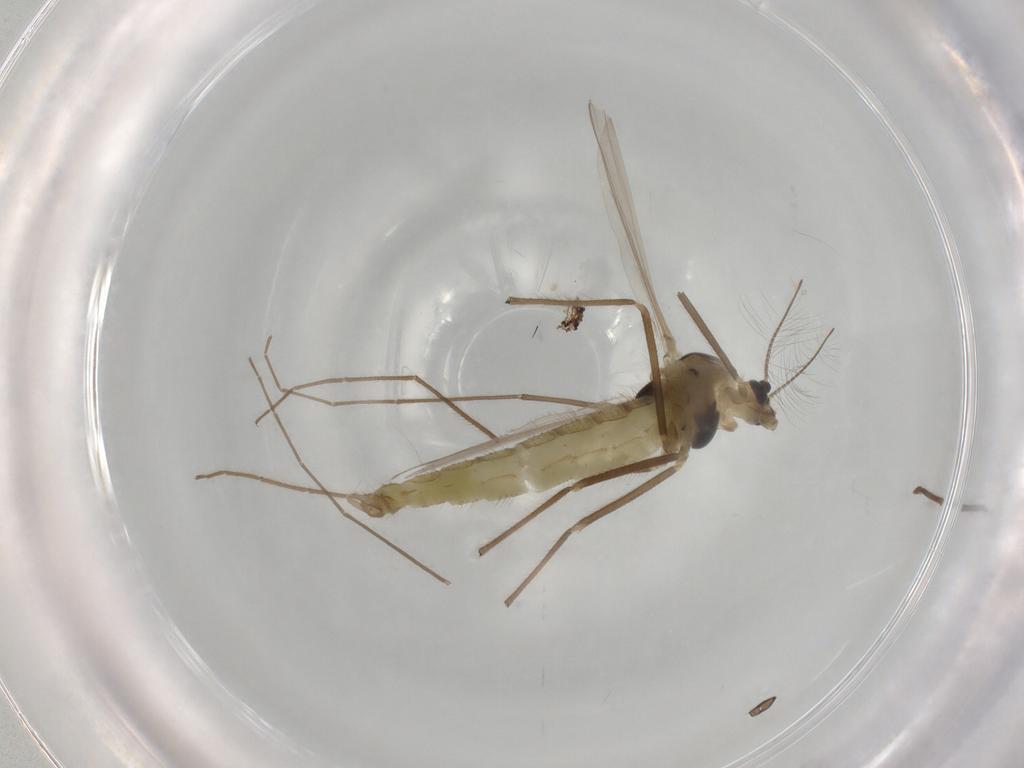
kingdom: Animalia
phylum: Arthropoda
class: Insecta
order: Diptera
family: Chironomidae
